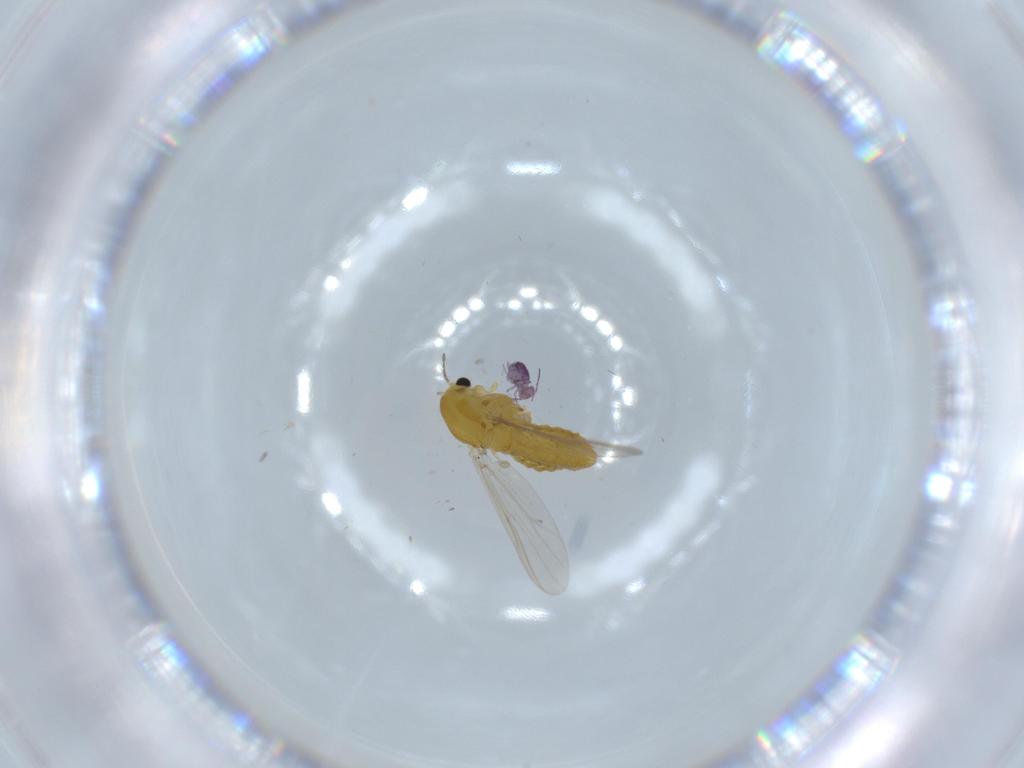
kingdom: Animalia
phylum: Arthropoda
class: Insecta
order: Diptera
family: Chironomidae
